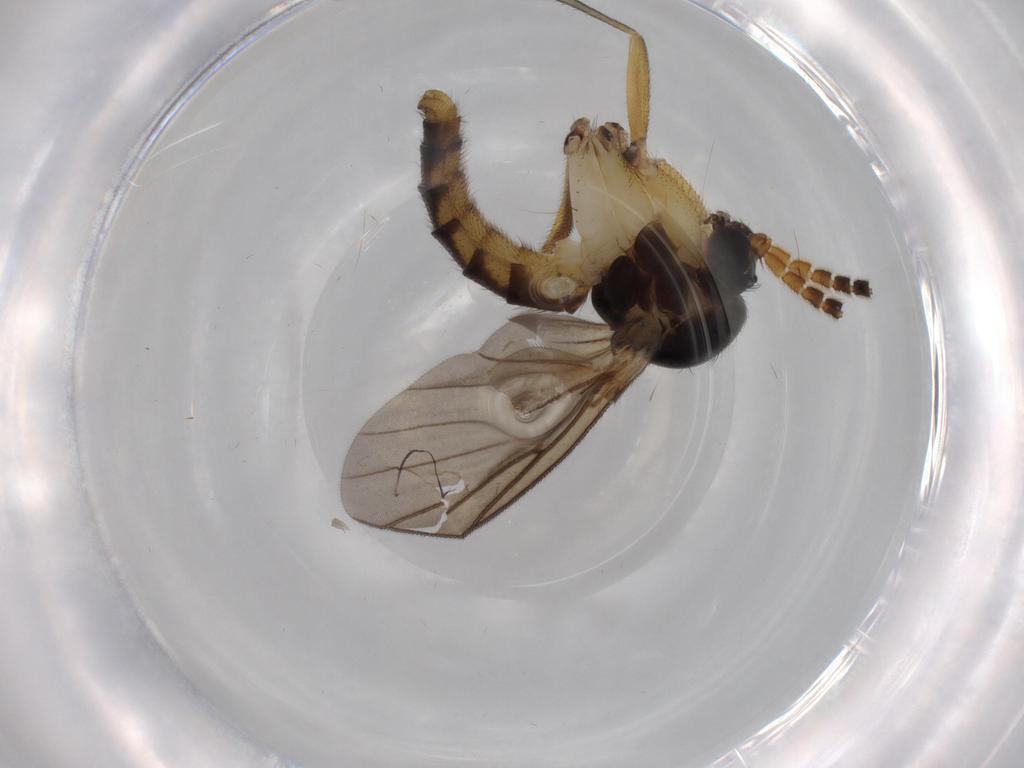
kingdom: Animalia
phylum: Arthropoda
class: Insecta
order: Diptera
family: Sciaridae
